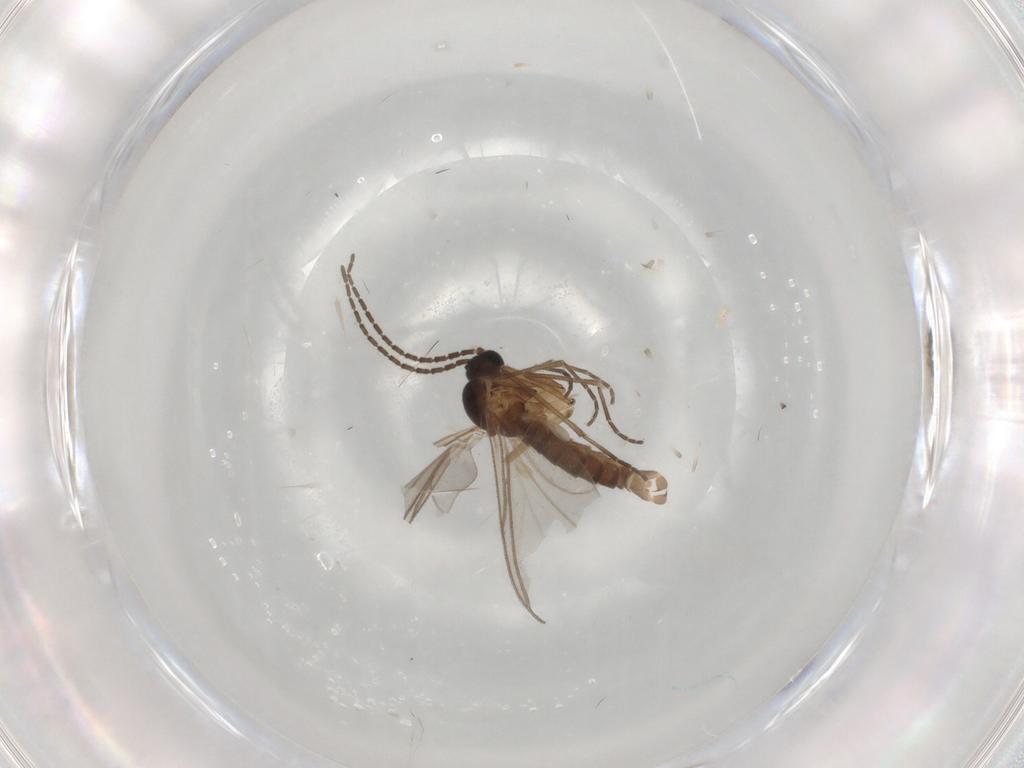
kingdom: Animalia
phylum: Arthropoda
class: Insecta
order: Diptera
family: Sciaridae
